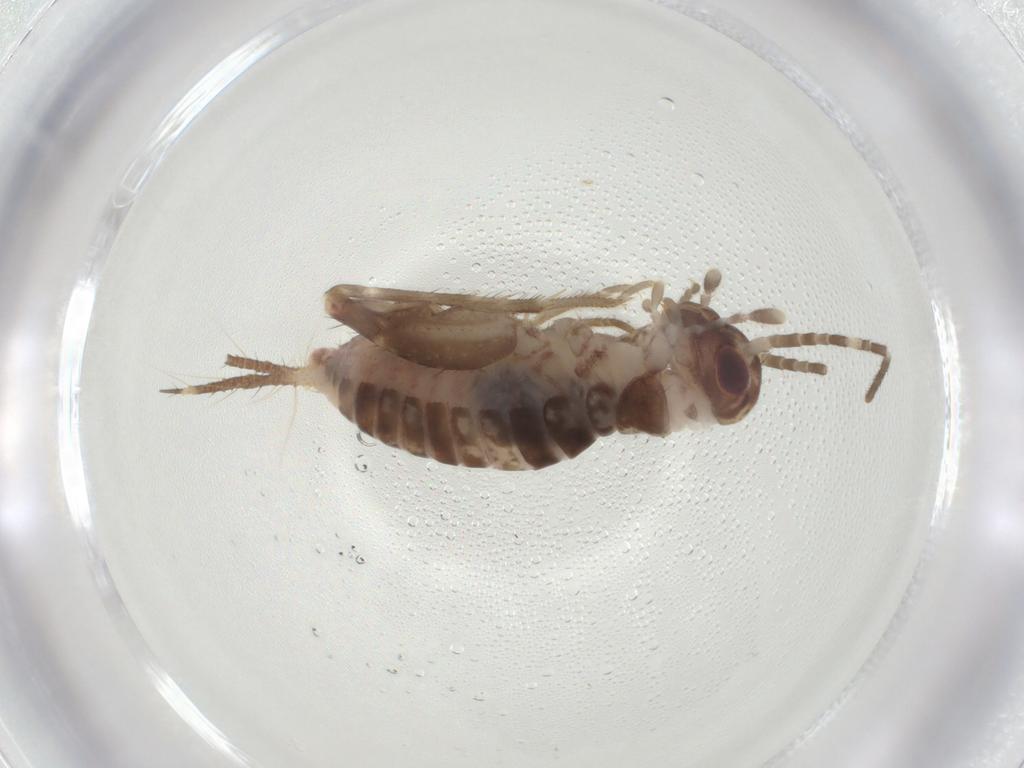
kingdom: Animalia
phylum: Arthropoda
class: Insecta
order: Orthoptera
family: Gryllidae
